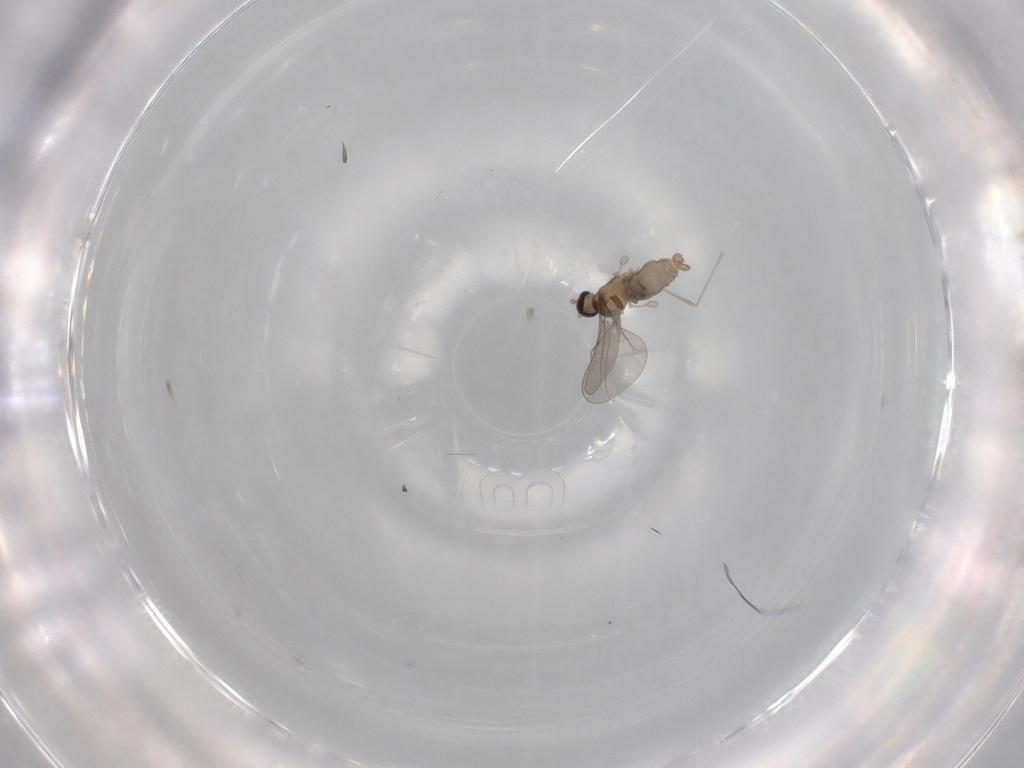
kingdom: Animalia
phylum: Arthropoda
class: Insecta
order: Diptera
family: Cecidomyiidae
